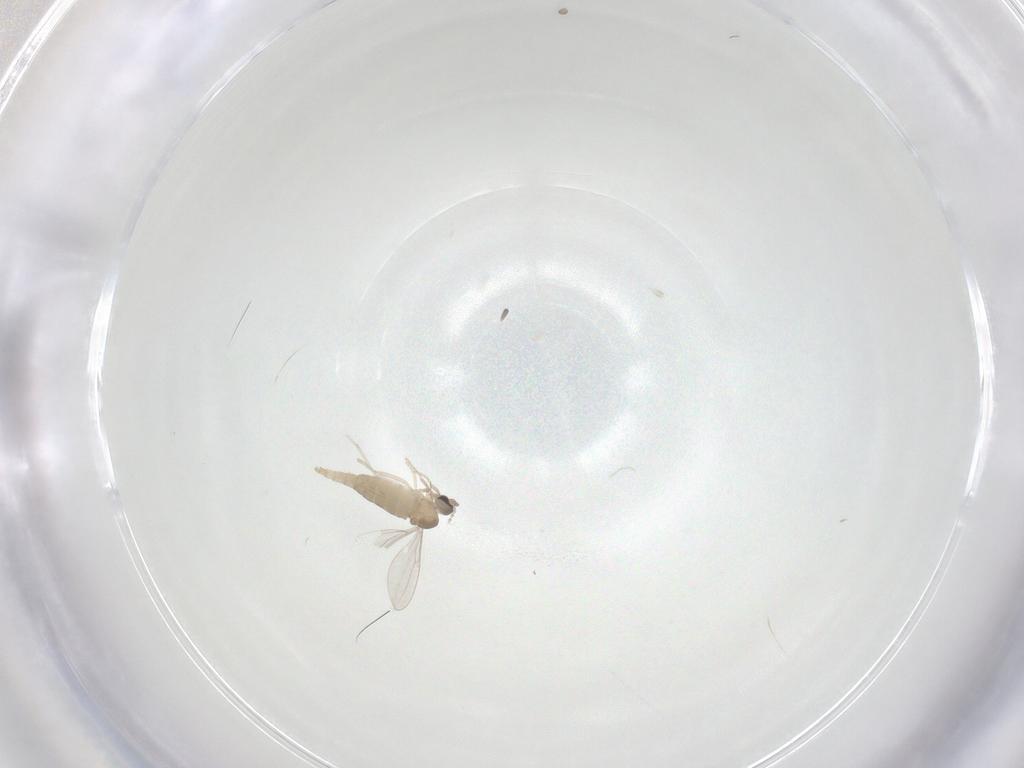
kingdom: Animalia
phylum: Arthropoda
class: Insecta
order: Diptera
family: Cecidomyiidae
